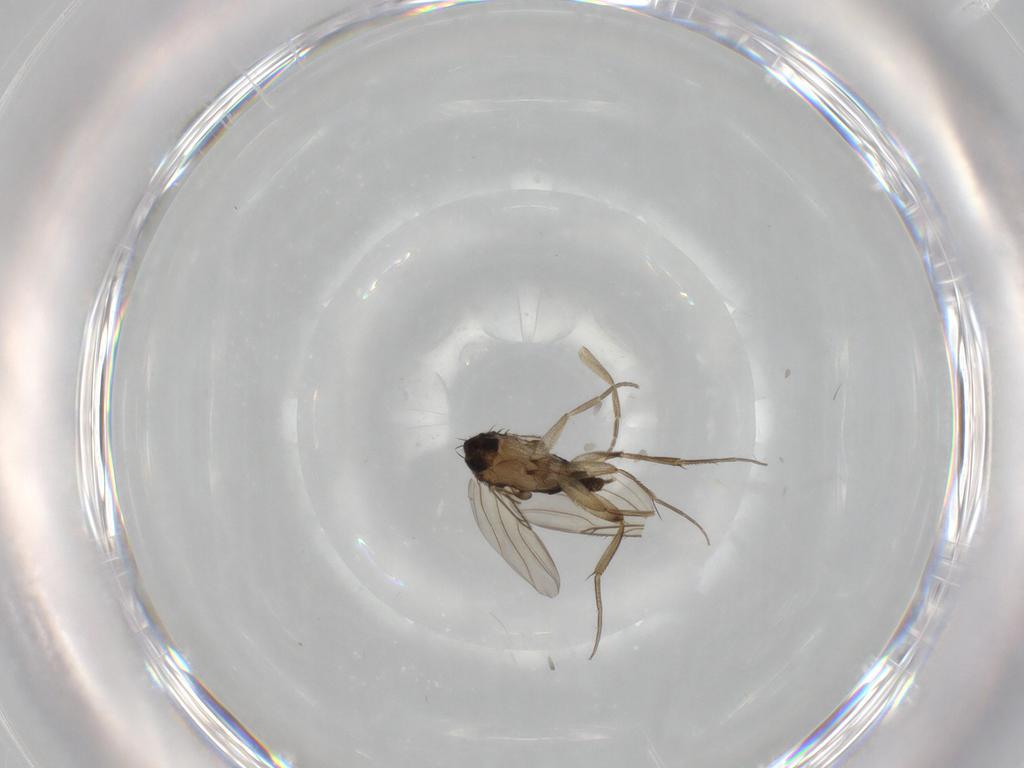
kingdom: Animalia
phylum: Arthropoda
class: Insecta
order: Diptera
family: Phoridae
